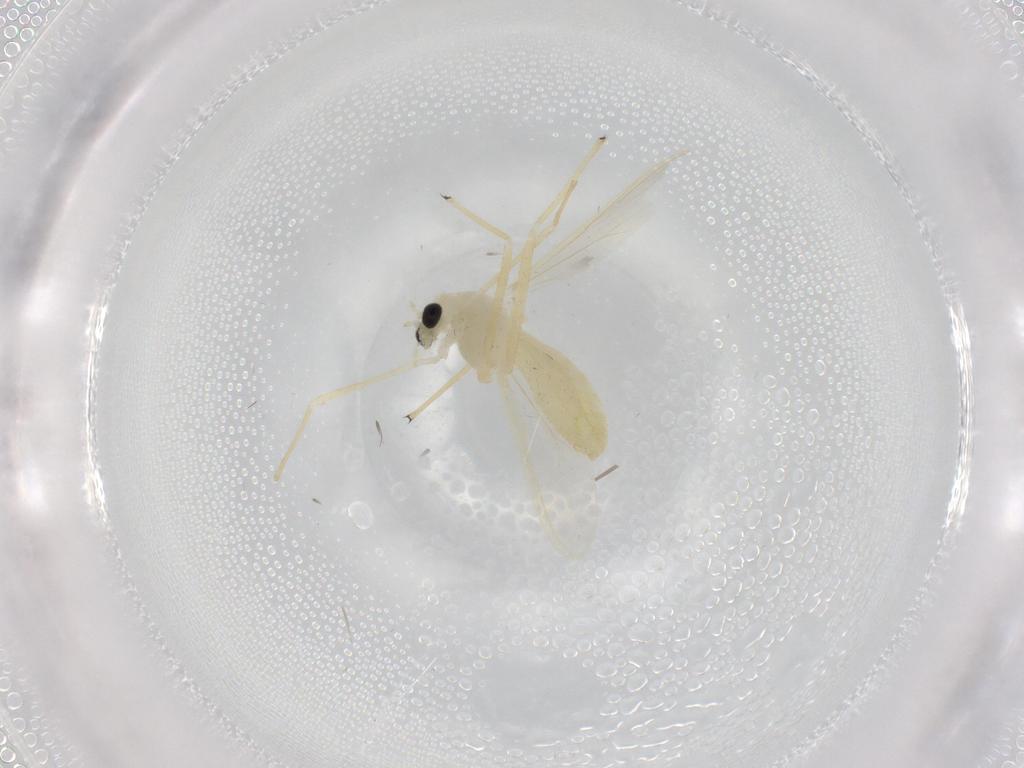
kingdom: Animalia
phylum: Arthropoda
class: Insecta
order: Diptera
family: Chironomidae
